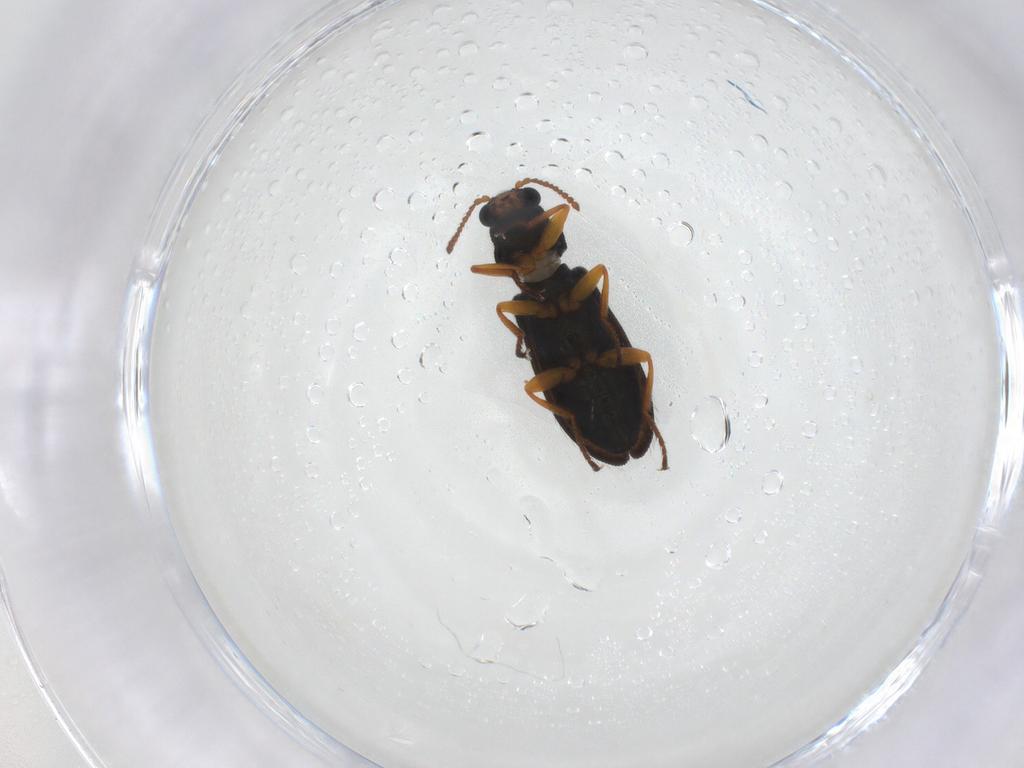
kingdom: Animalia
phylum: Arthropoda
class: Insecta
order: Coleoptera
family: Melyridae
